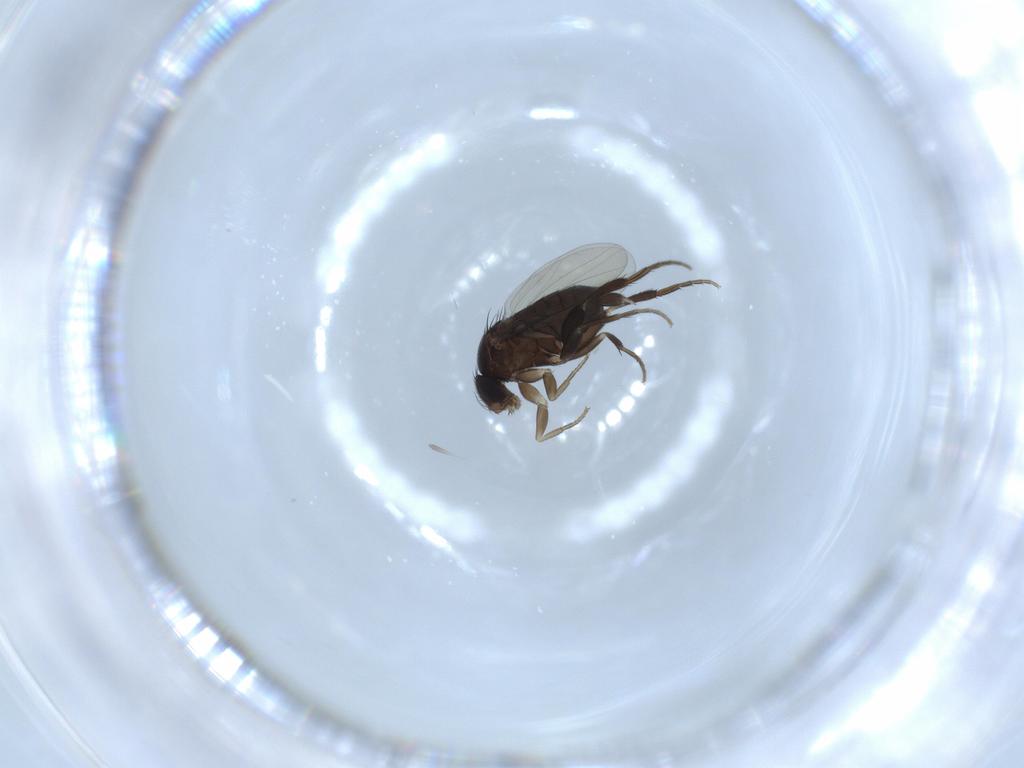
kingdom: Animalia
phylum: Arthropoda
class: Insecta
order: Diptera
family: Phoridae
